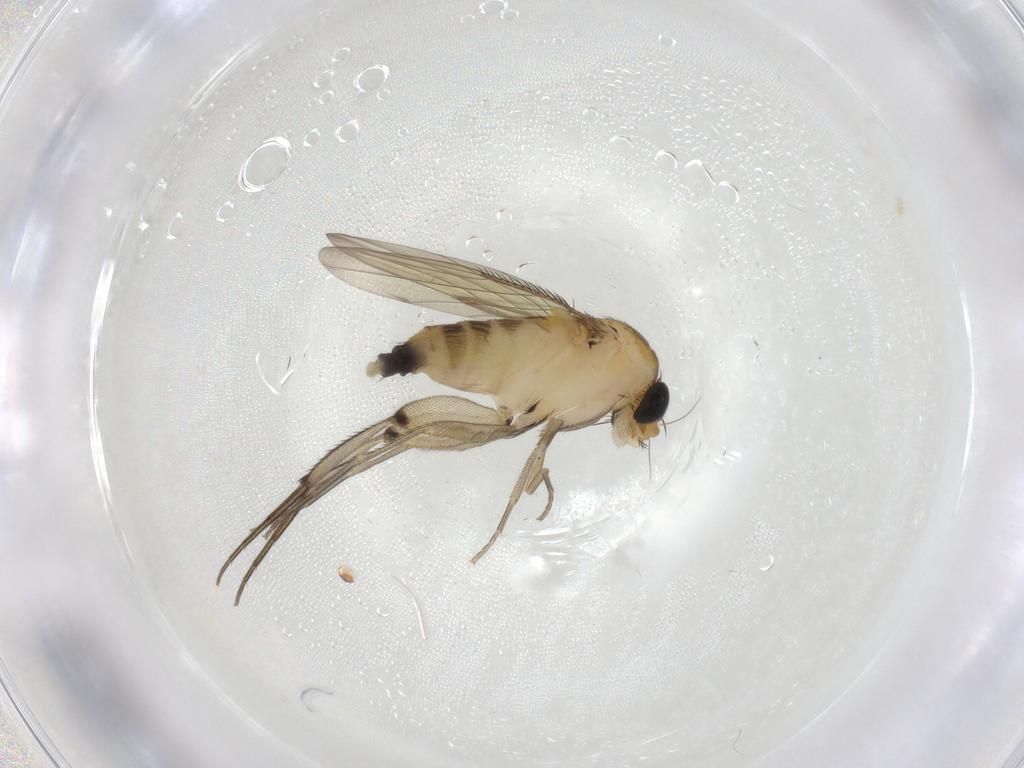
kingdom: Animalia
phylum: Arthropoda
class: Insecta
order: Diptera
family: Phoridae
